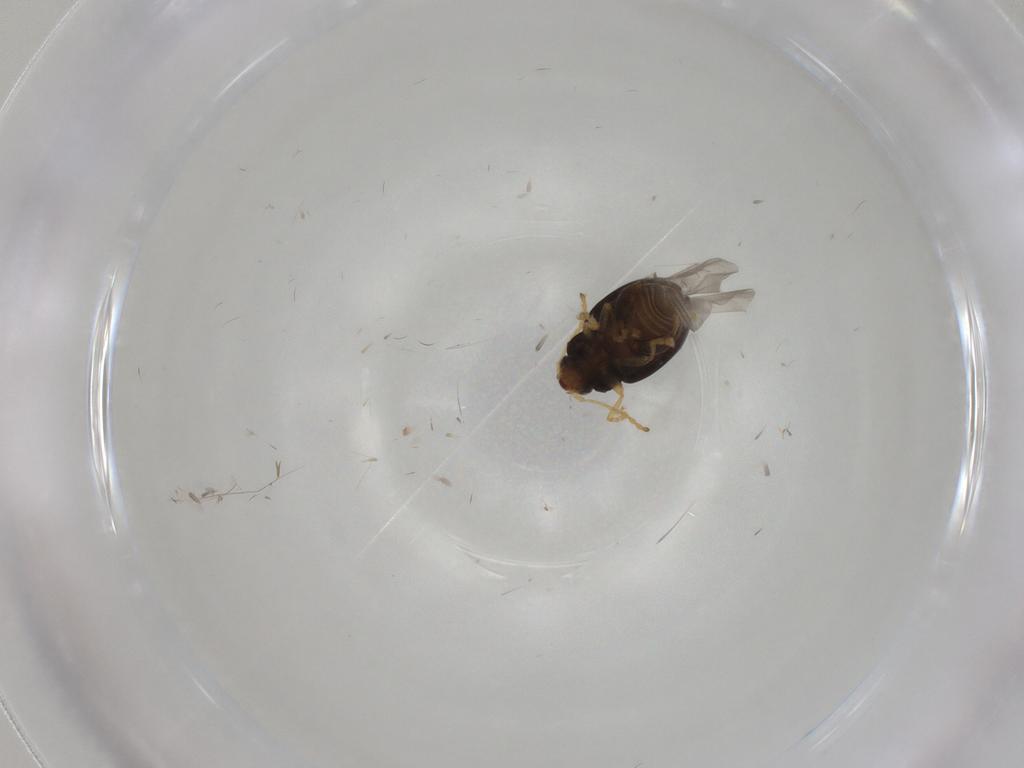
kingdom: Animalia
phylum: Arthropoda
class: Insecta
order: Coleoptera
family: Chrysomelidae
